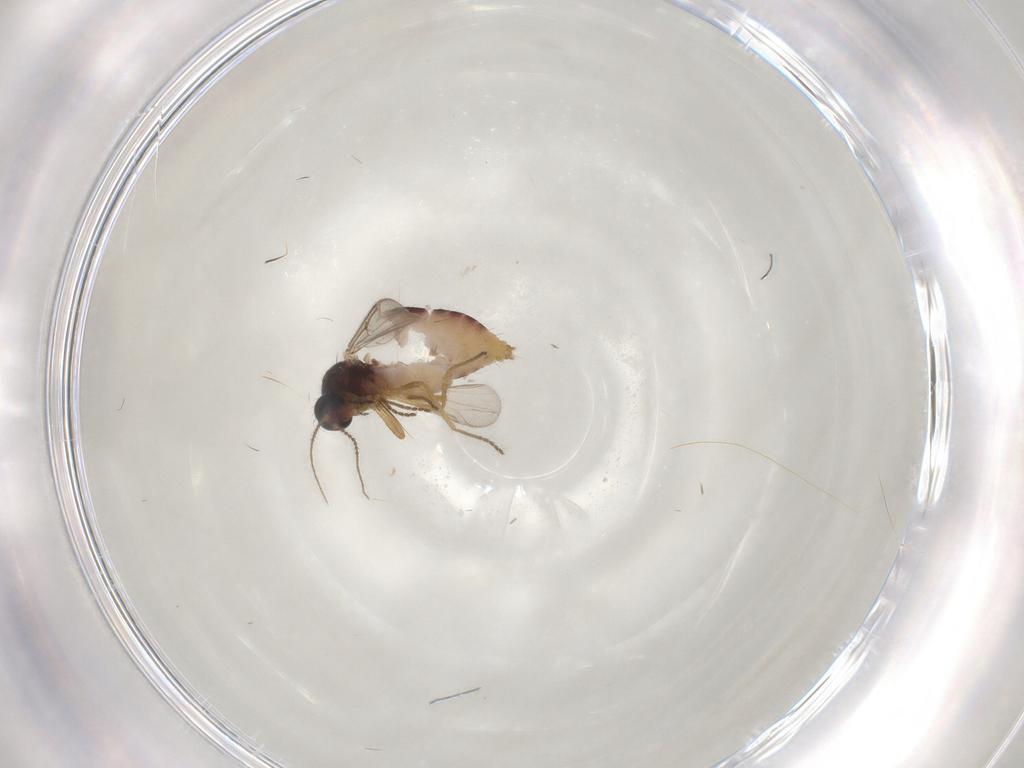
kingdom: Animalia
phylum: Arthropoda
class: Insecta
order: Diptera
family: Ceratopogonidae
